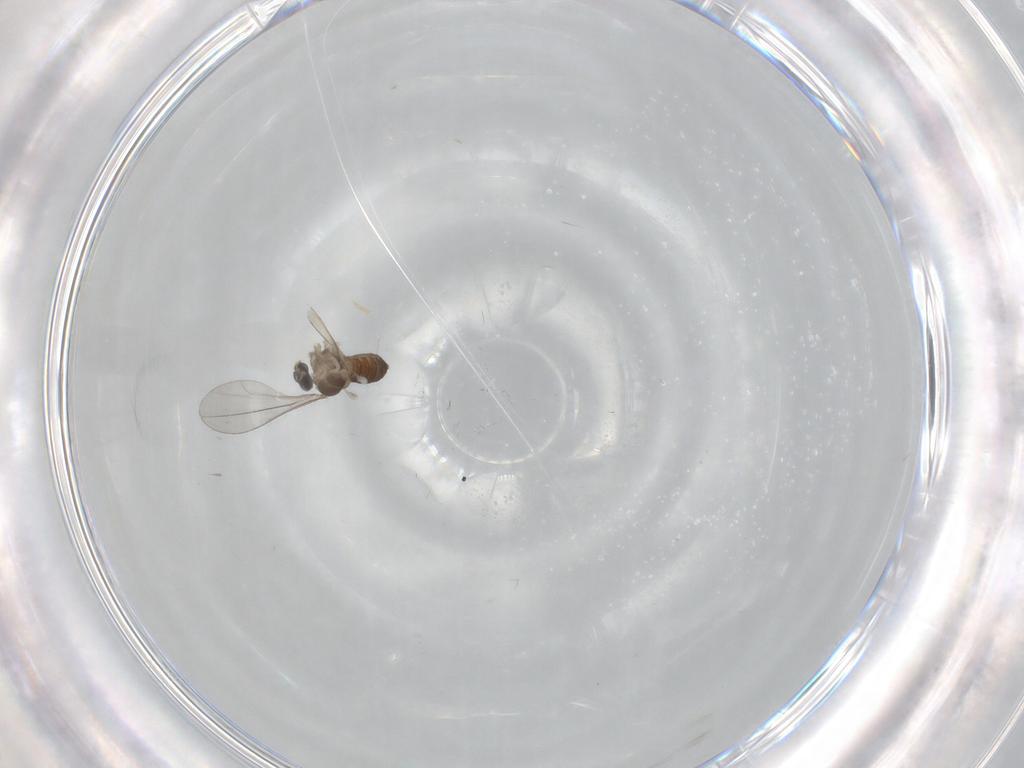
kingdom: Animalia
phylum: Arthropoda
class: Insecta
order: Diptera
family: Cecidomyiidae
